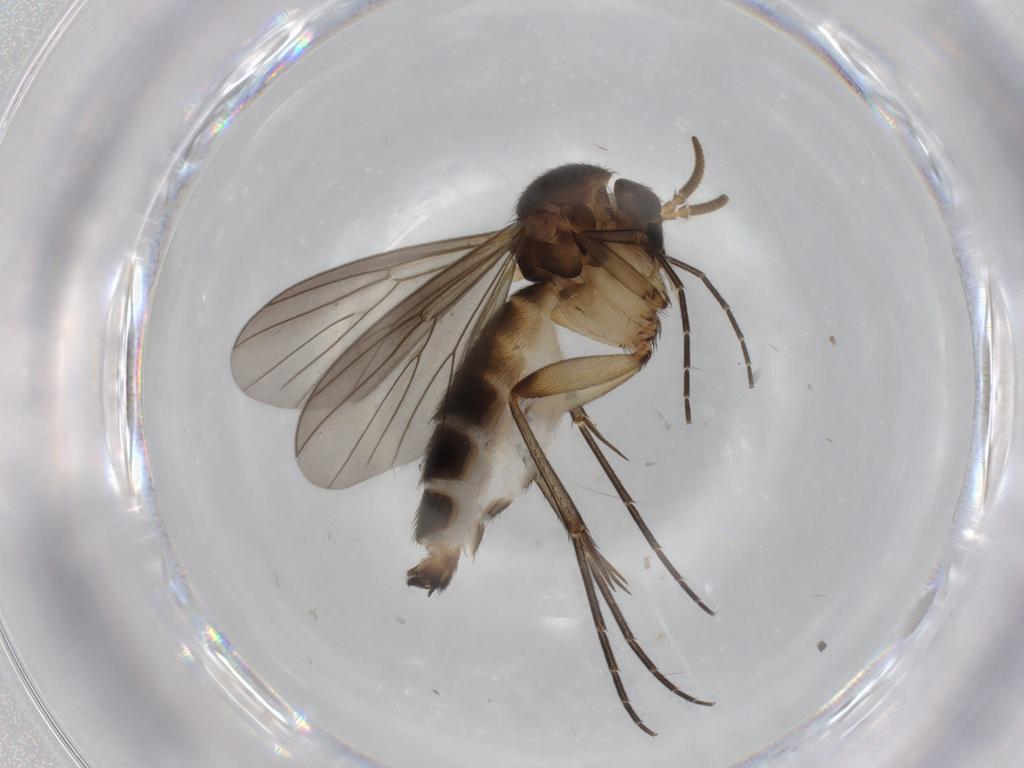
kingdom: Animalia
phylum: Arthropoda
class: Insecta
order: Diptera
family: Mycetophilidae
